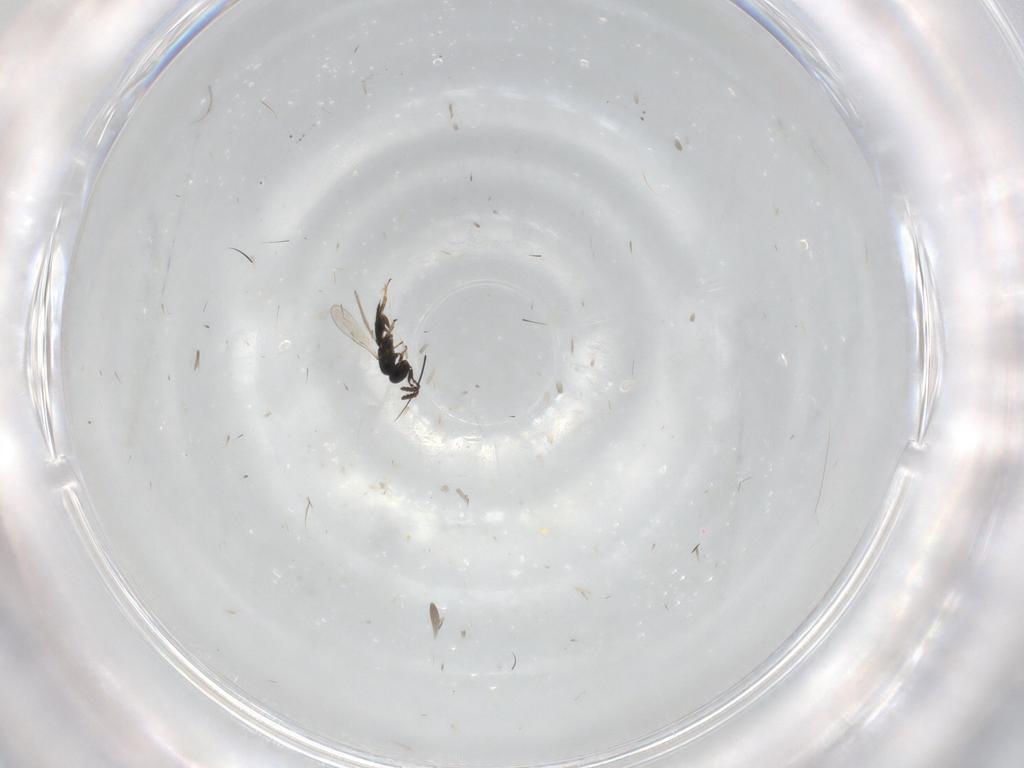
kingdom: Animalia
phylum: Arthropoda
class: Insecta
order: Hymenoptera
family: Scelionidae
